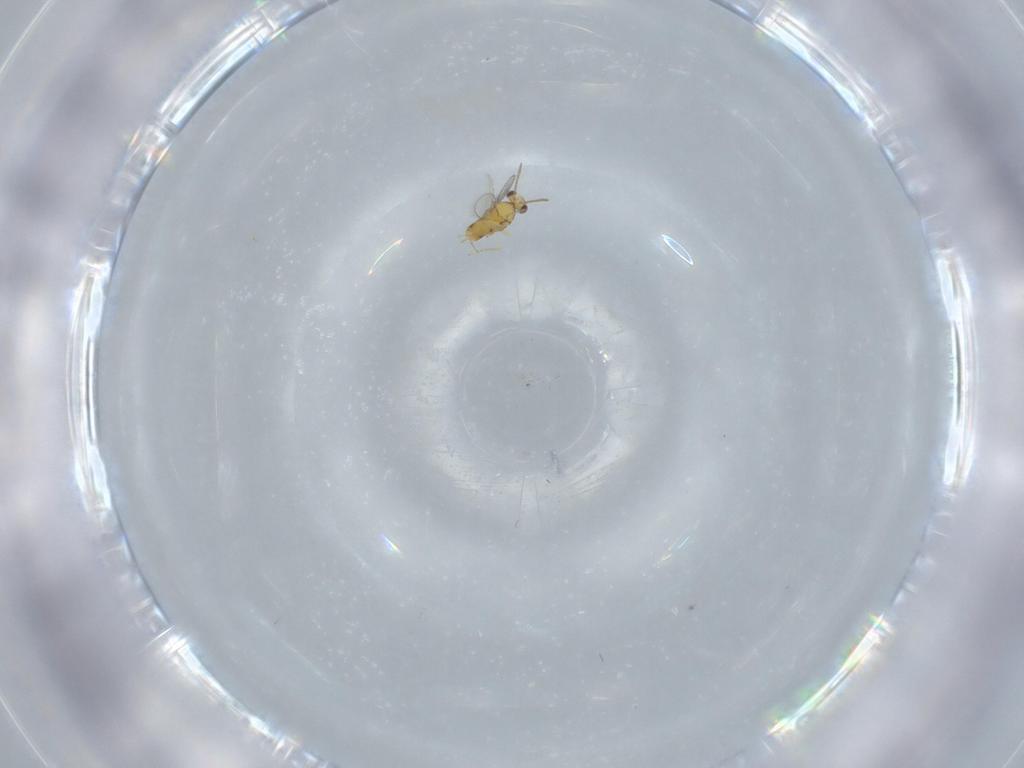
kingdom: Animalia
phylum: Arthropoda
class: Insecta
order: Hymenoptera
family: Aphelinidae
